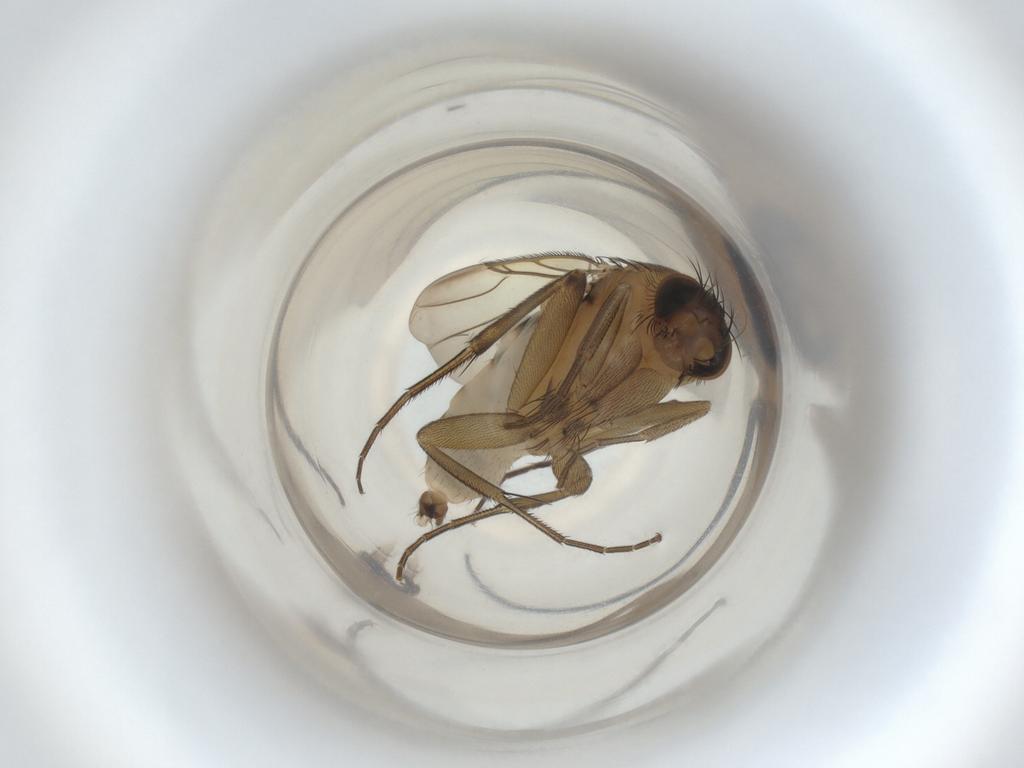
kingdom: Animalia
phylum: Arthropoda
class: Insecta
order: Diptera
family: Phoridae
